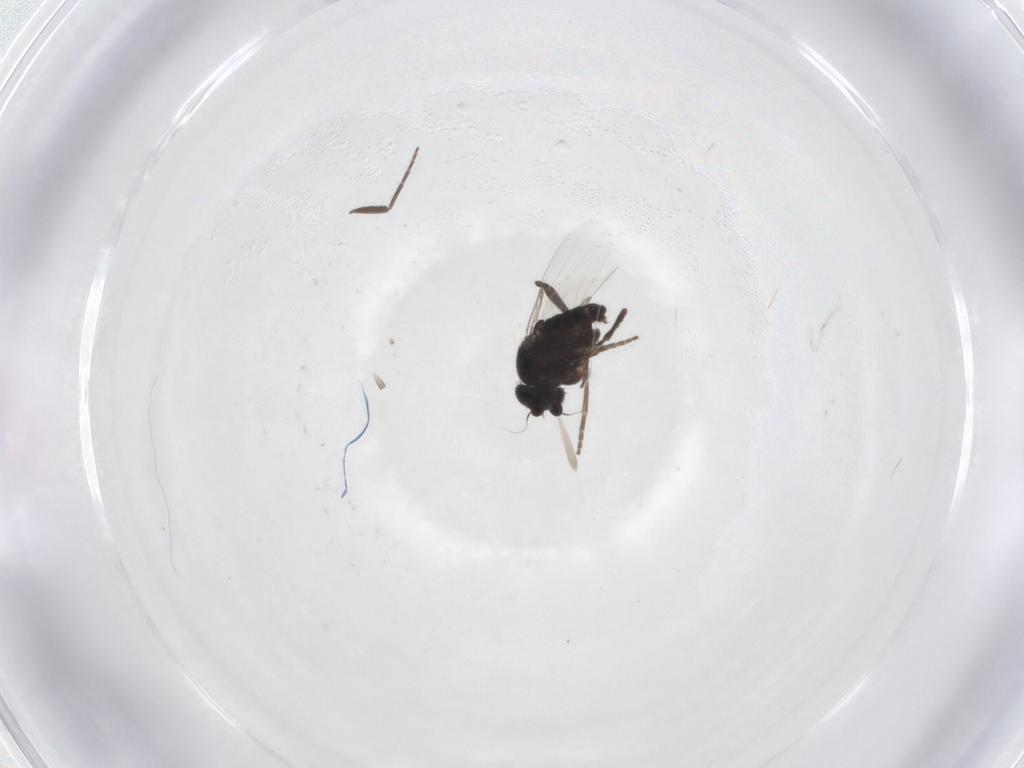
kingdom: Animalia
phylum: Arthropoda
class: Insecta
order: Diptera
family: Phoridae
